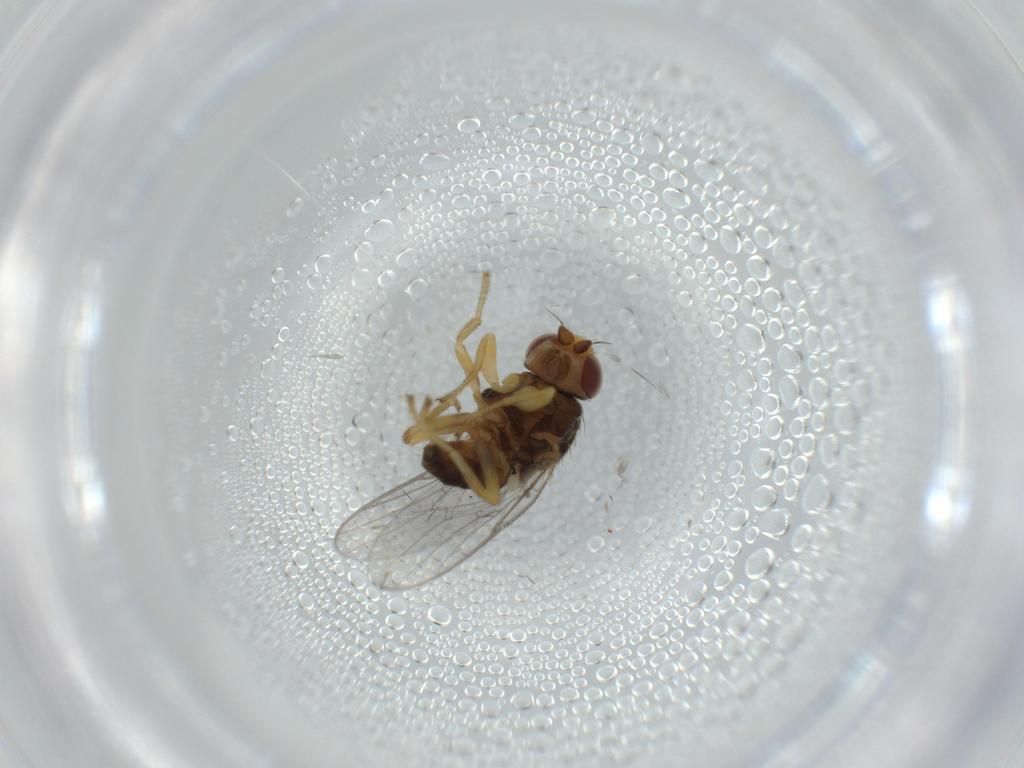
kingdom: Animalia
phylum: Arthropoda
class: Insecta
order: Diptera
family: Chloropidae
